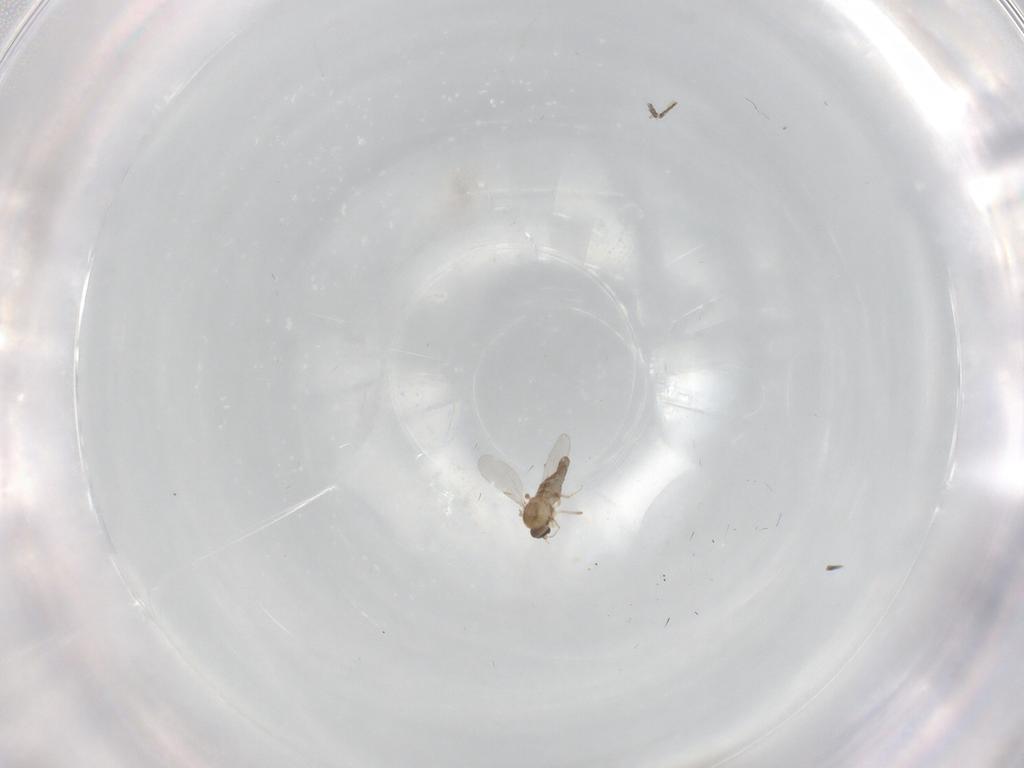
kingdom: Animalia
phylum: Arthropoda
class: Insecta
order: Diptera
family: Ceratopogonidae
